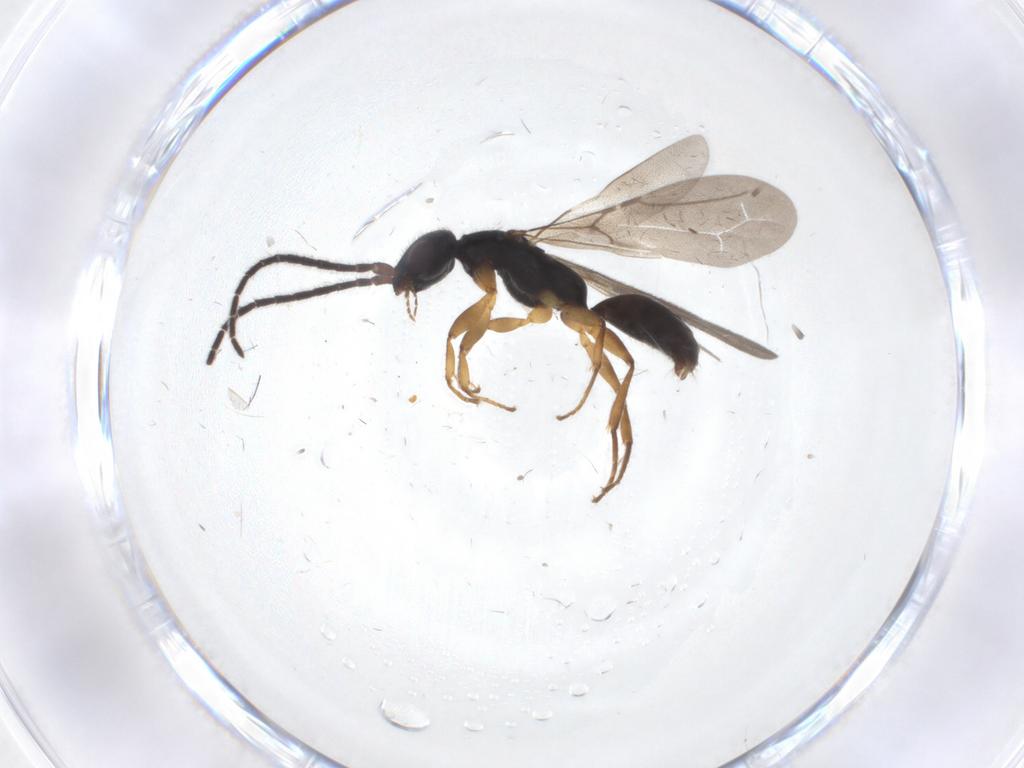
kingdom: Animalia
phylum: Arthropoda
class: Insecta
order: Hymenoptera
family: Bethylidae
